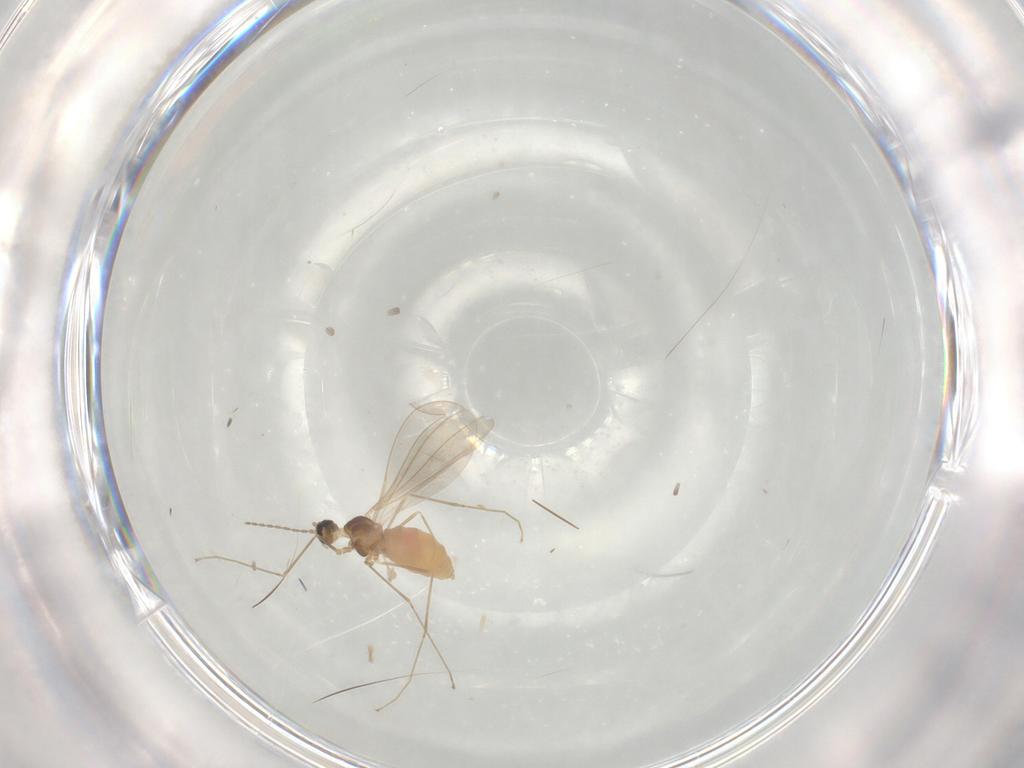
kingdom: Animalia
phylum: Arthropoda
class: Insecta
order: Diptera
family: Cecidomyiidae
